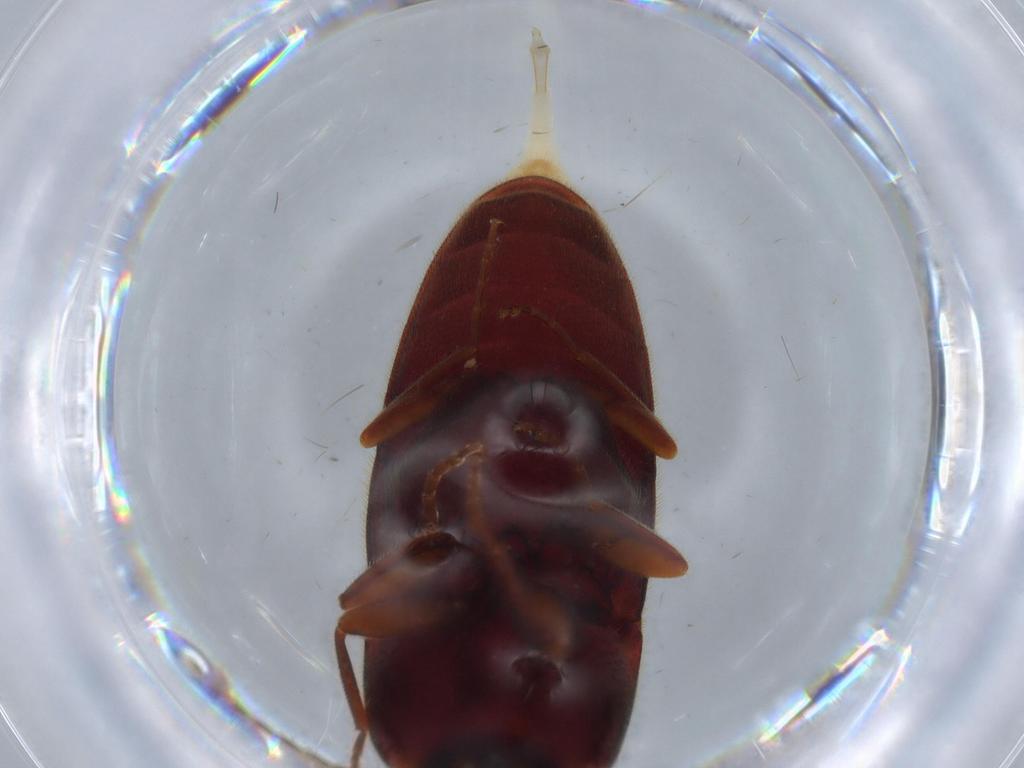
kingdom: Animalia
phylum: Arthropoda
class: Insecta
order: Coleoptera
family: Elateridae
